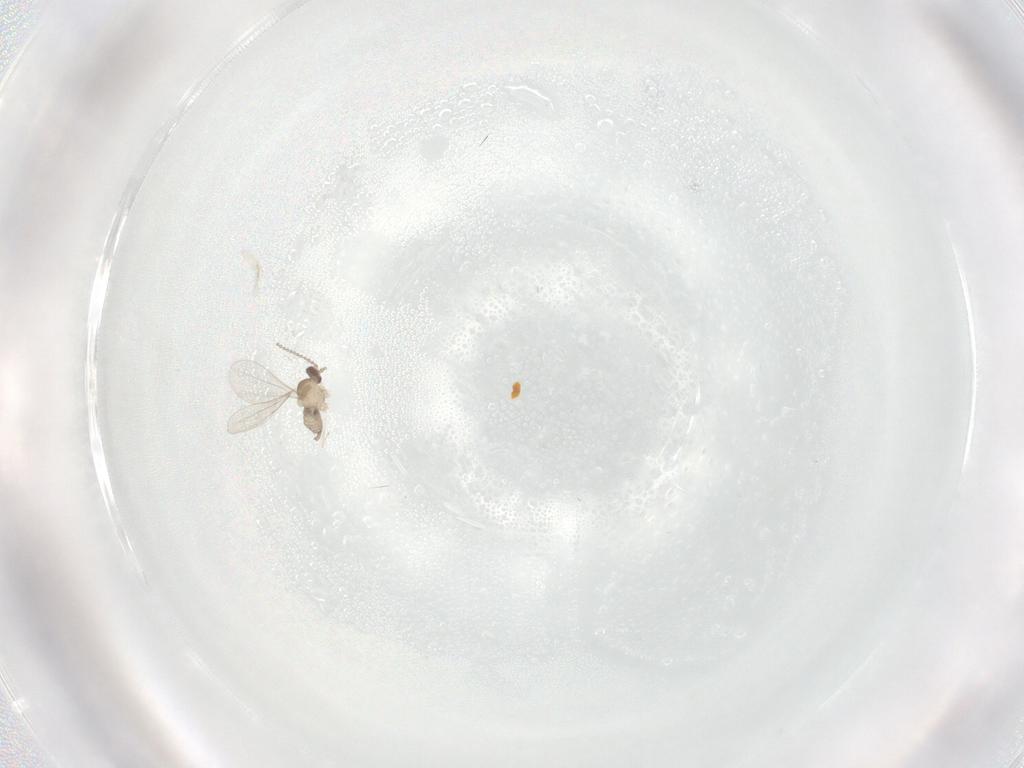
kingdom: Animalia
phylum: Arthropoda
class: Insecta
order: Diptera
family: Cecidomyiidae
